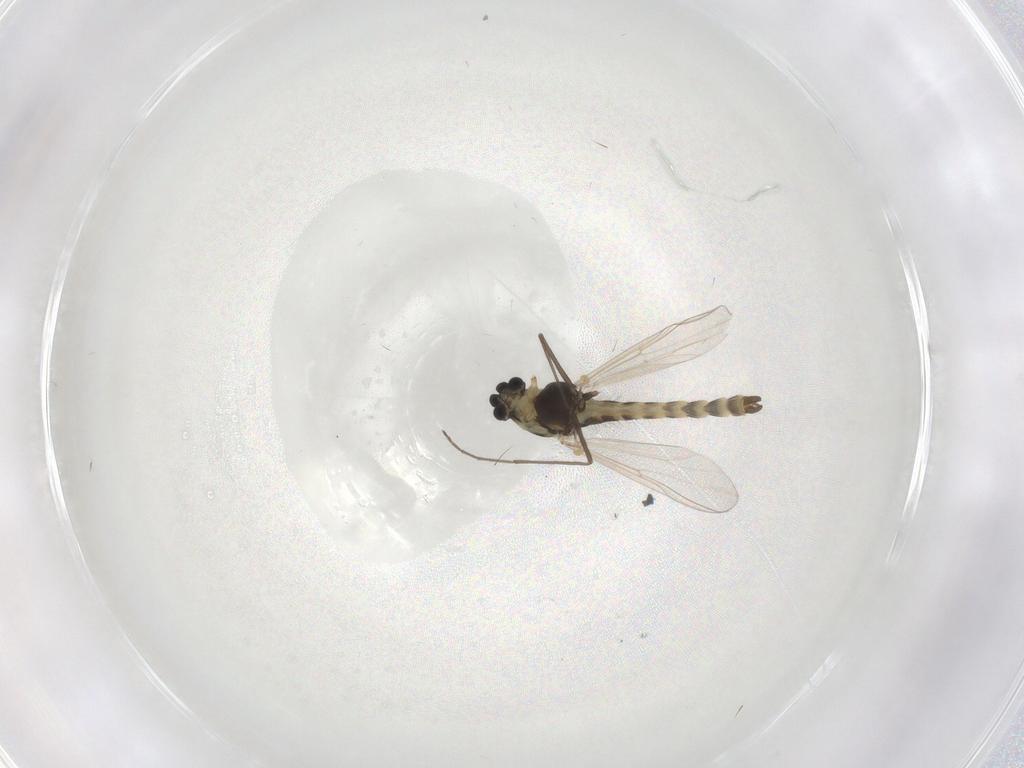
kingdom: Animalia
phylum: Arthropoda
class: Insecta
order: Diptera
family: Chironomidae
